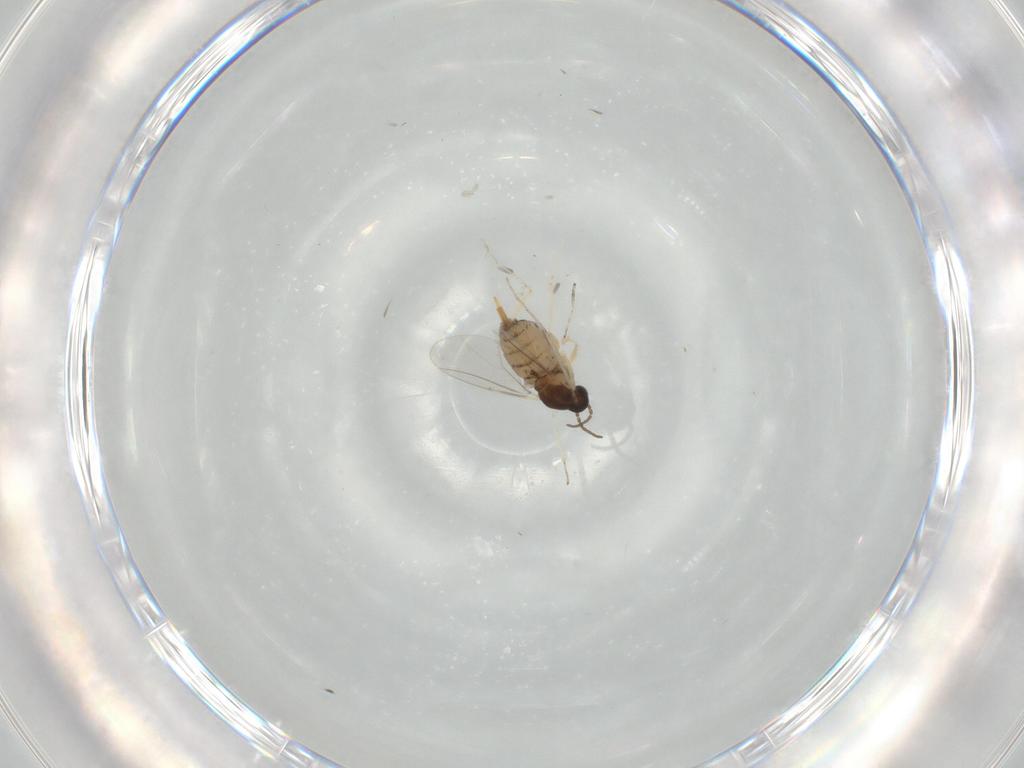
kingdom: Animalia
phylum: Arthropoda
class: Insecta
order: Diptera
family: Cecidomyiidae
